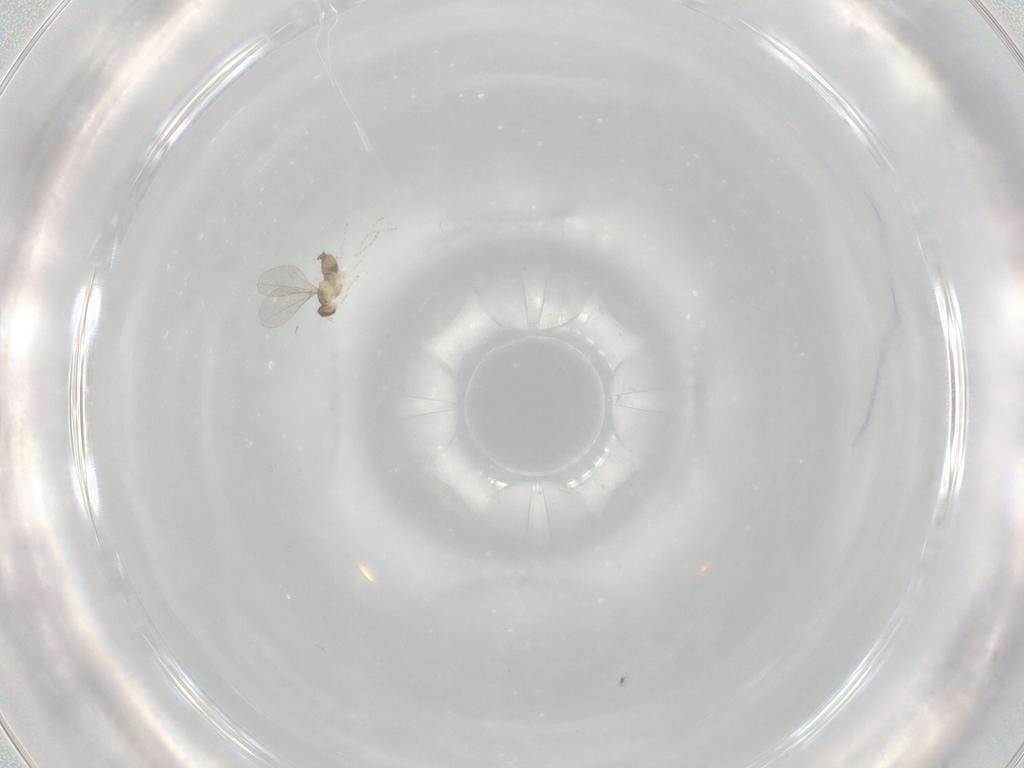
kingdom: Animalia
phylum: Arthropoda
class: Insecta
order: Diptera
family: Cecidomyiidae
